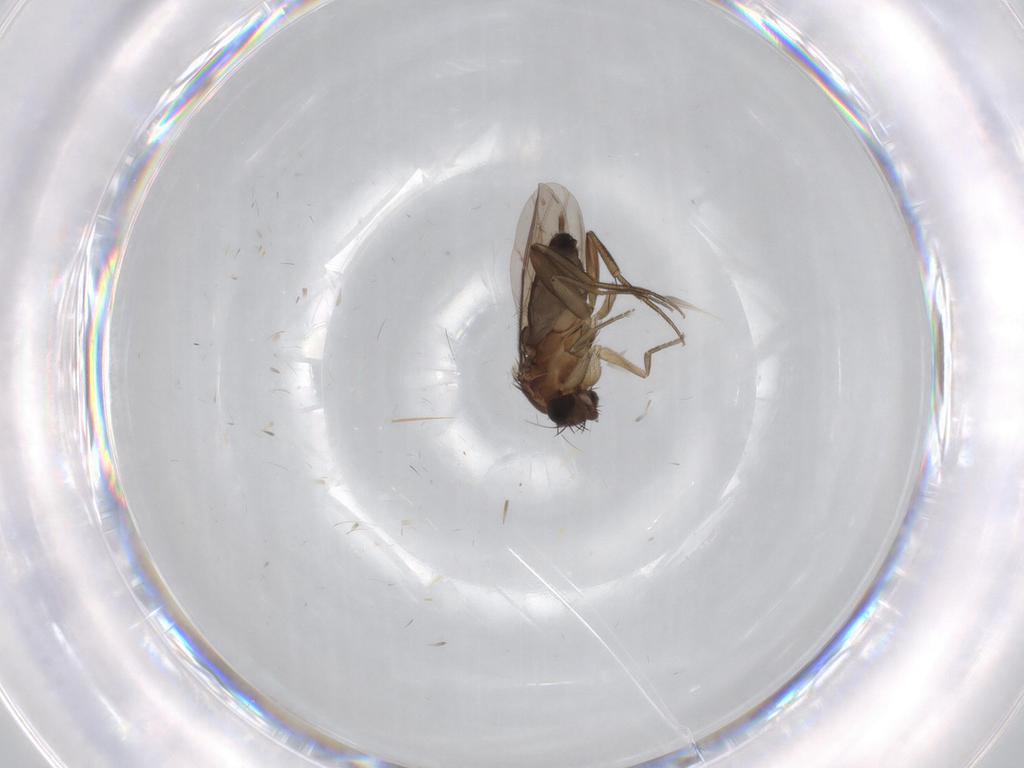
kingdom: Animalia
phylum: Arthropoda
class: Insecta
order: Diptera
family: Phoridae
